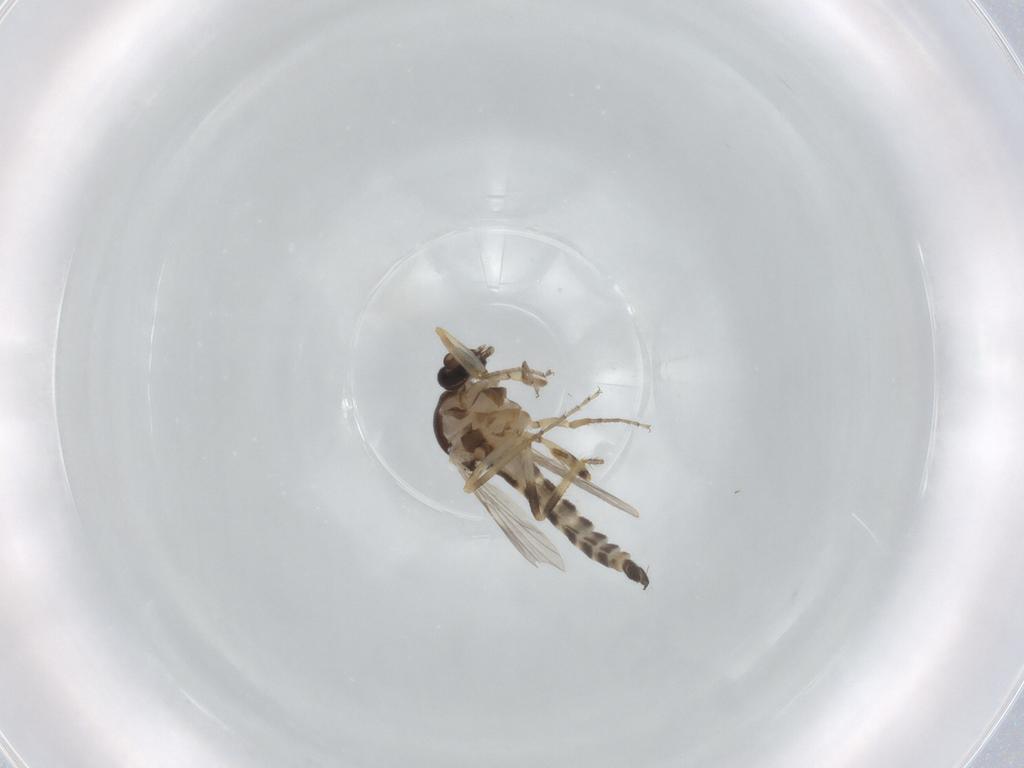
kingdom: Animalia
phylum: Arthropoda
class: Insecta
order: Diptera
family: Ceratopogonidae
